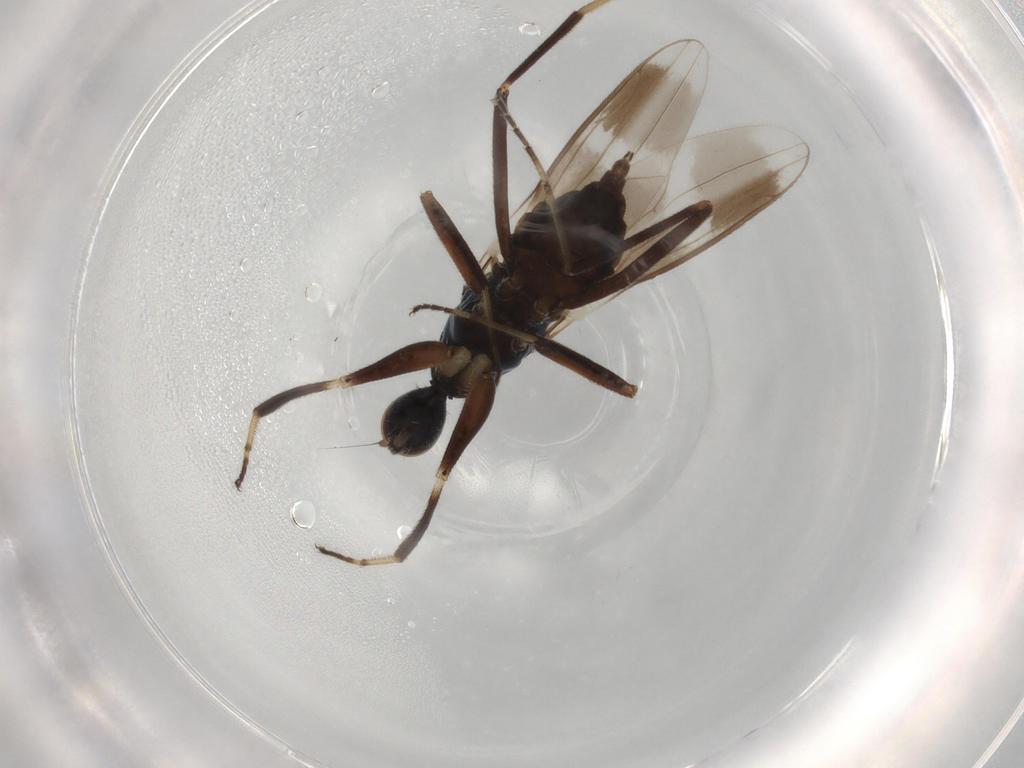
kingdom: Animalia
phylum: Arthropoda
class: Insecta
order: Diptera
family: Hybotidae
